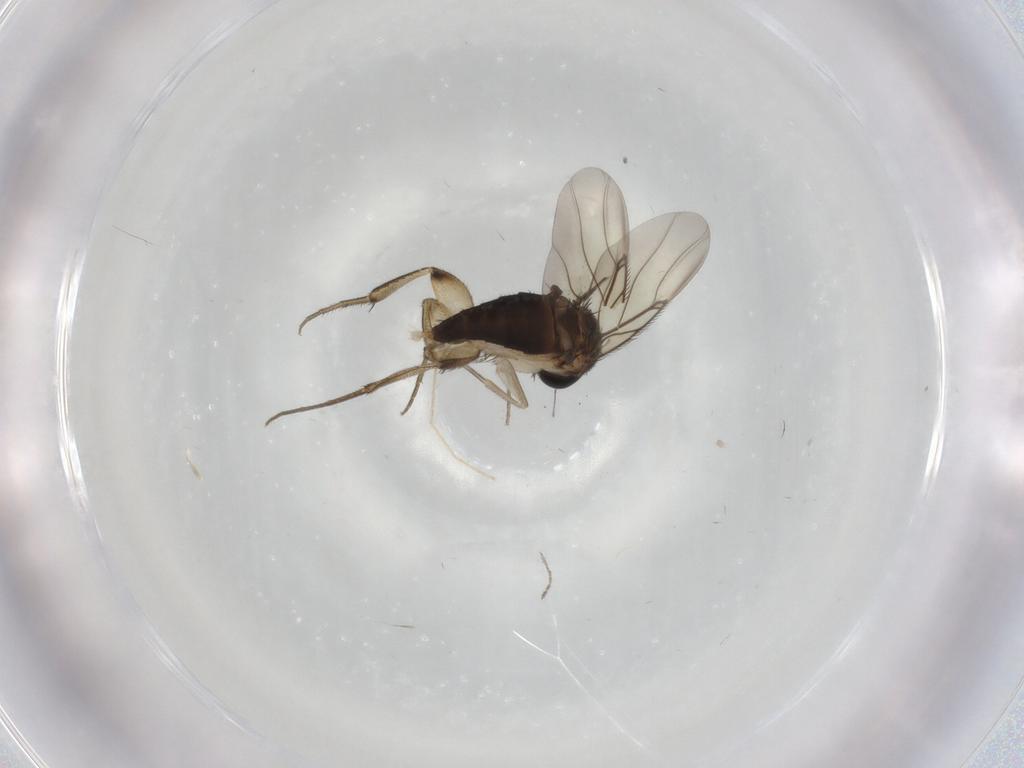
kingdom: Animalia
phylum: Arthropoda
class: Insecta
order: Diptera
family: Phoridae
